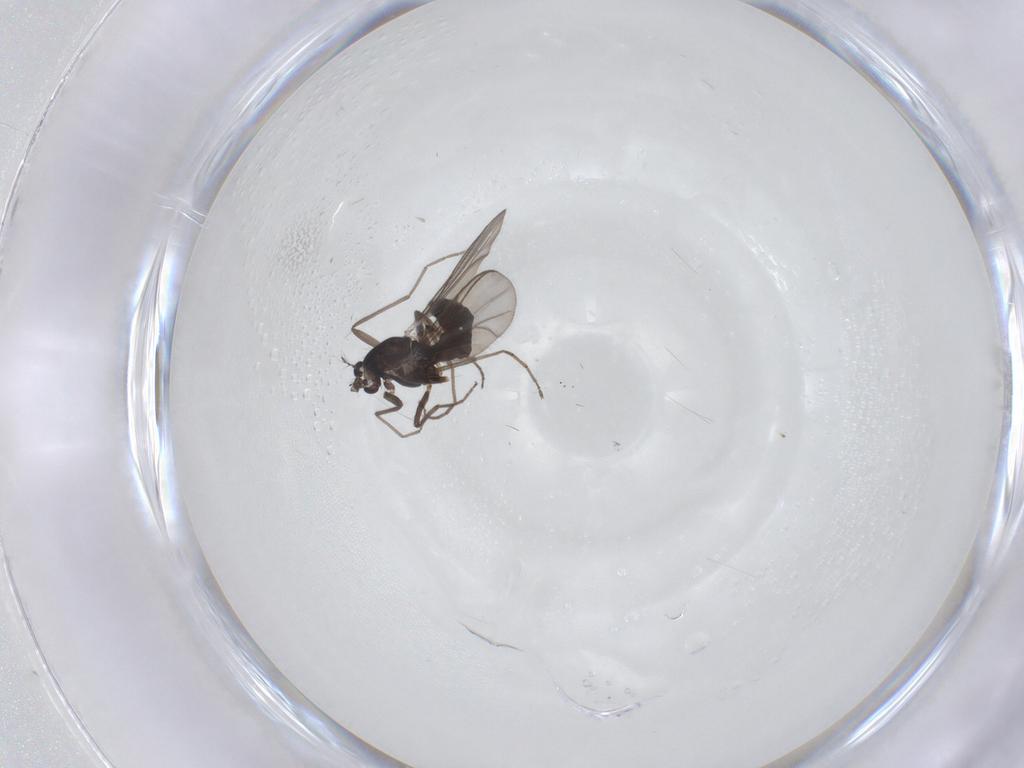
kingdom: Animalia
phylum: Arthropoda
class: Insecta
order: Diptera
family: Chironomidae
